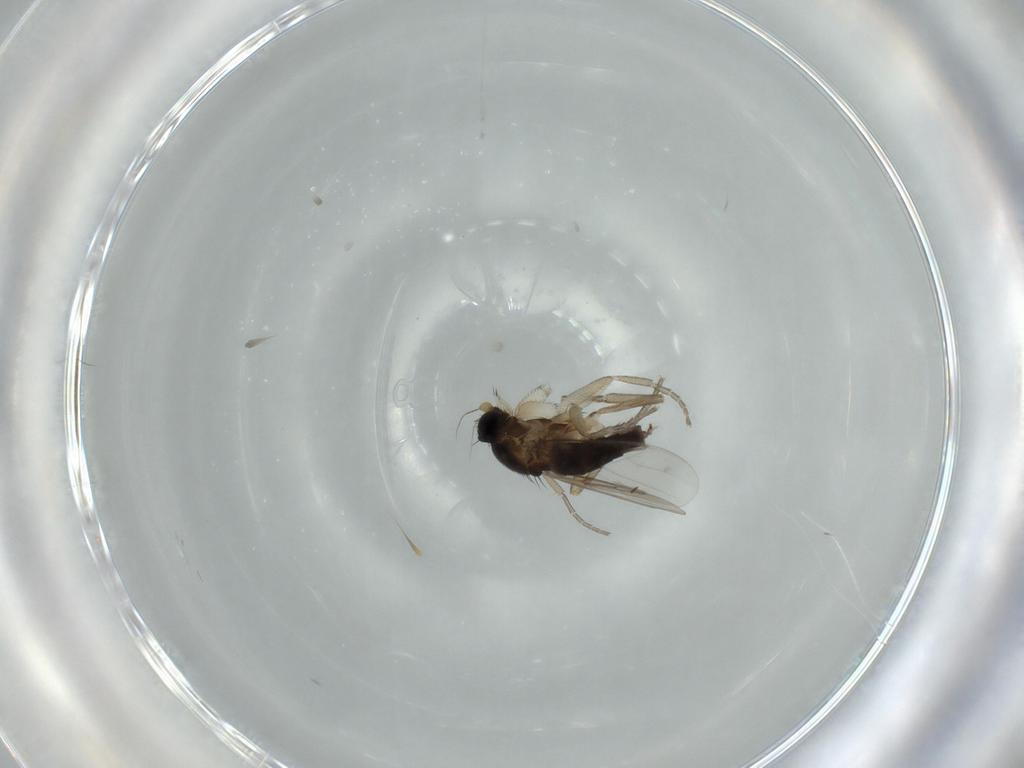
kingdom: Animalia
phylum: Arthropoda
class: Insecta
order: Diptera
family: Phoridae
